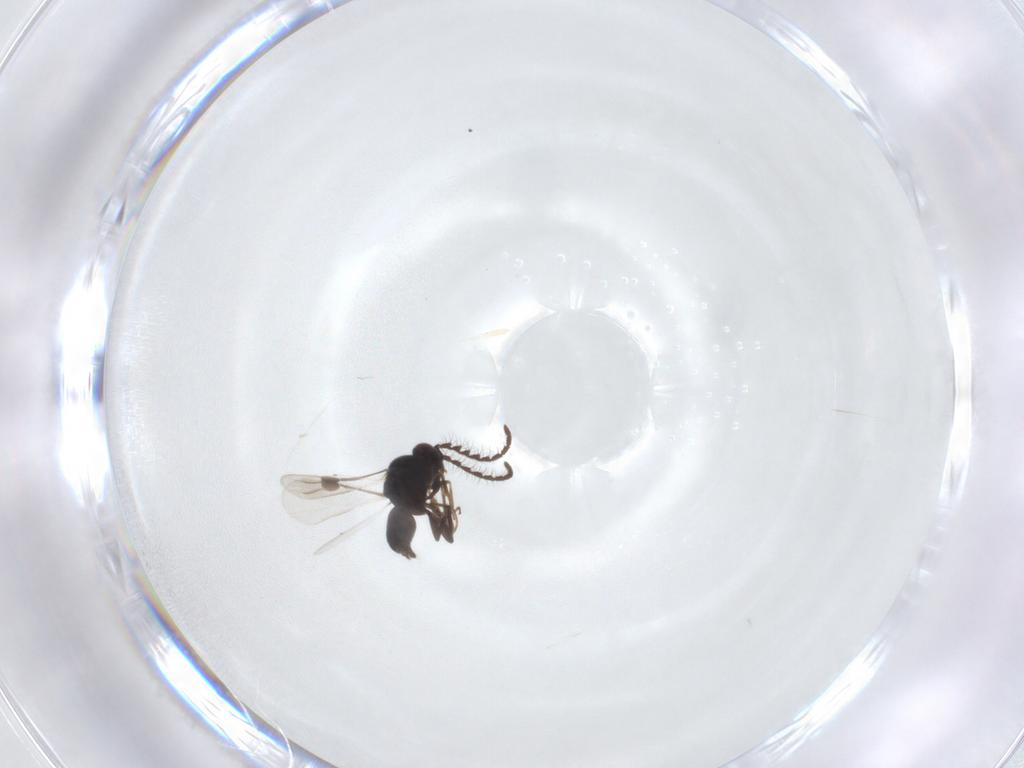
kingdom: Animalia
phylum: Arthropoda
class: Insecta
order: Hymenoptera
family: Megaspilidae
